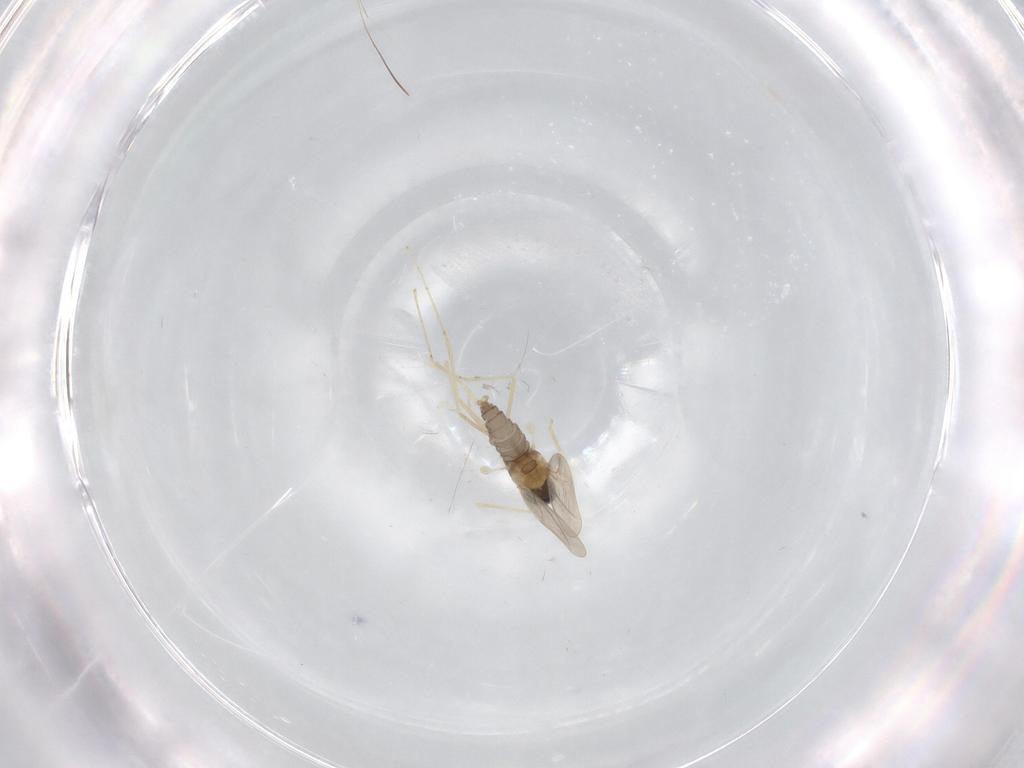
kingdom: Animalia
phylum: Arthropoda
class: Insecta
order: Diptera
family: Cecidomyiidae
